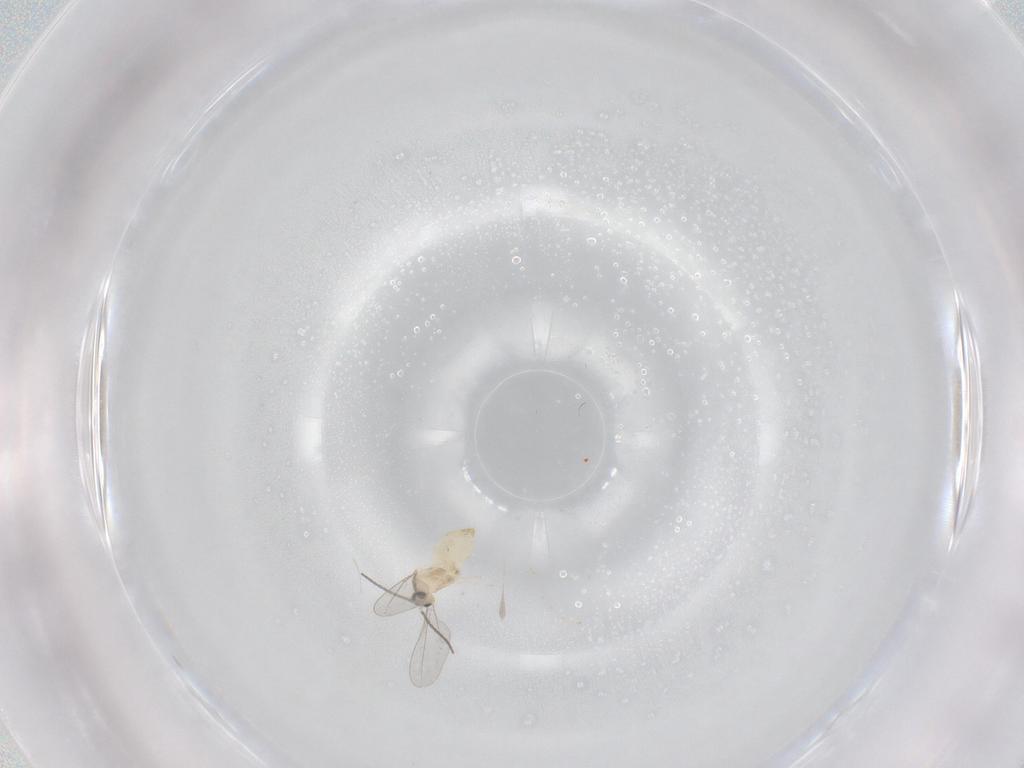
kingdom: Animalia
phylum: Arthropoda
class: Insecta
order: Diptera
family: Cecidomyiidae
